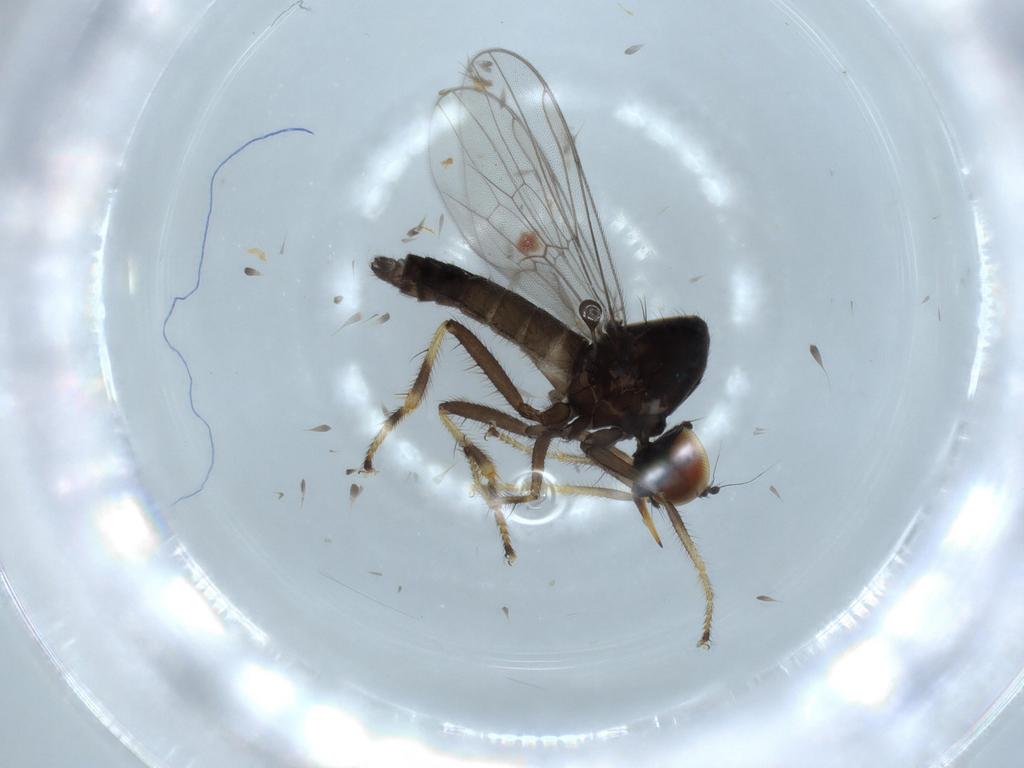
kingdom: Animalia
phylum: Arthropoda
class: Insecta
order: Diptera
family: Hybotidae
